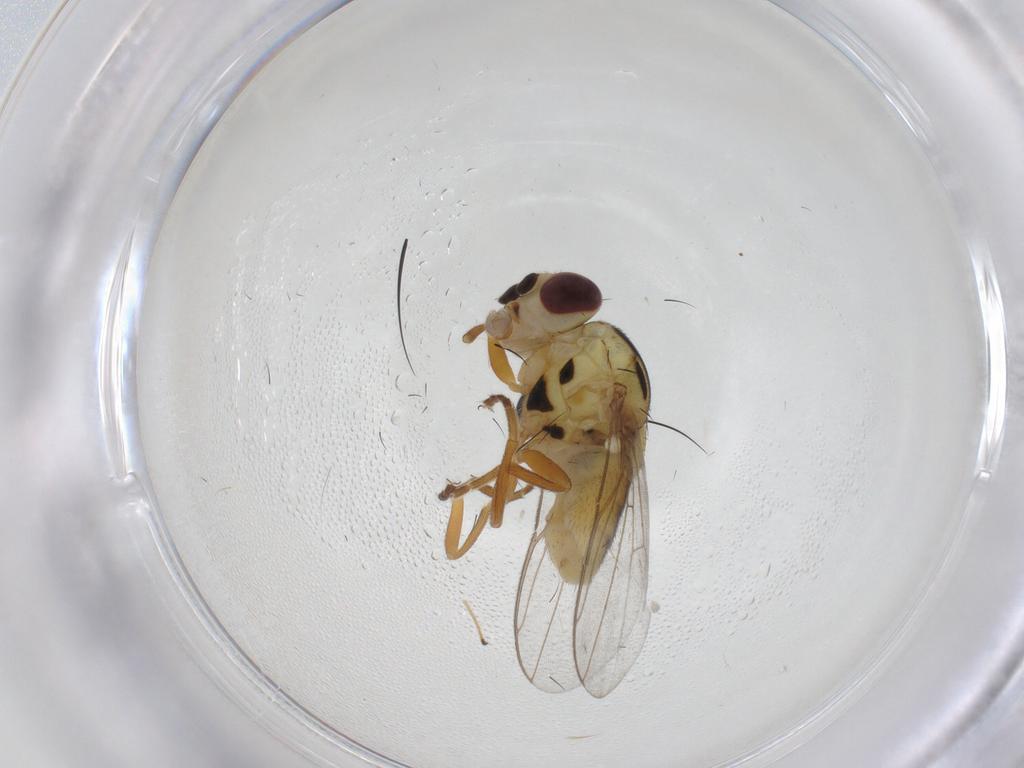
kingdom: Animalia
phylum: Arthropoda
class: Insecta
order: Diptera
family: Chloropidae
